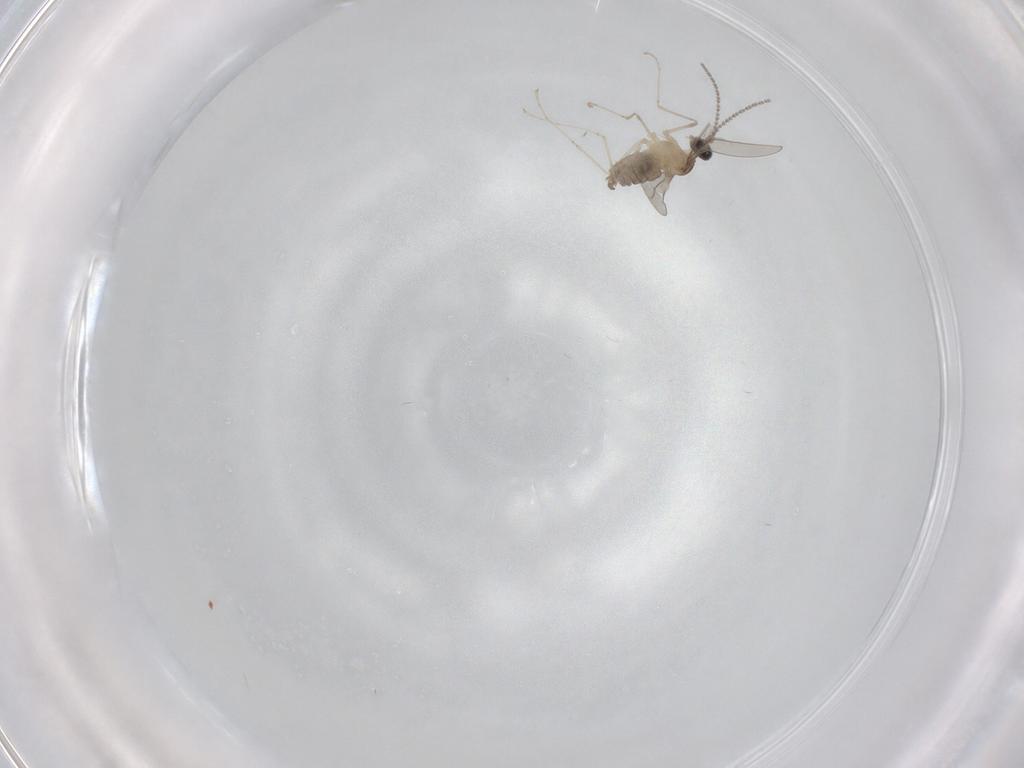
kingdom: Animalia
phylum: Arthropoda
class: Insecta
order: Diptera
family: Cecidomyiidae
